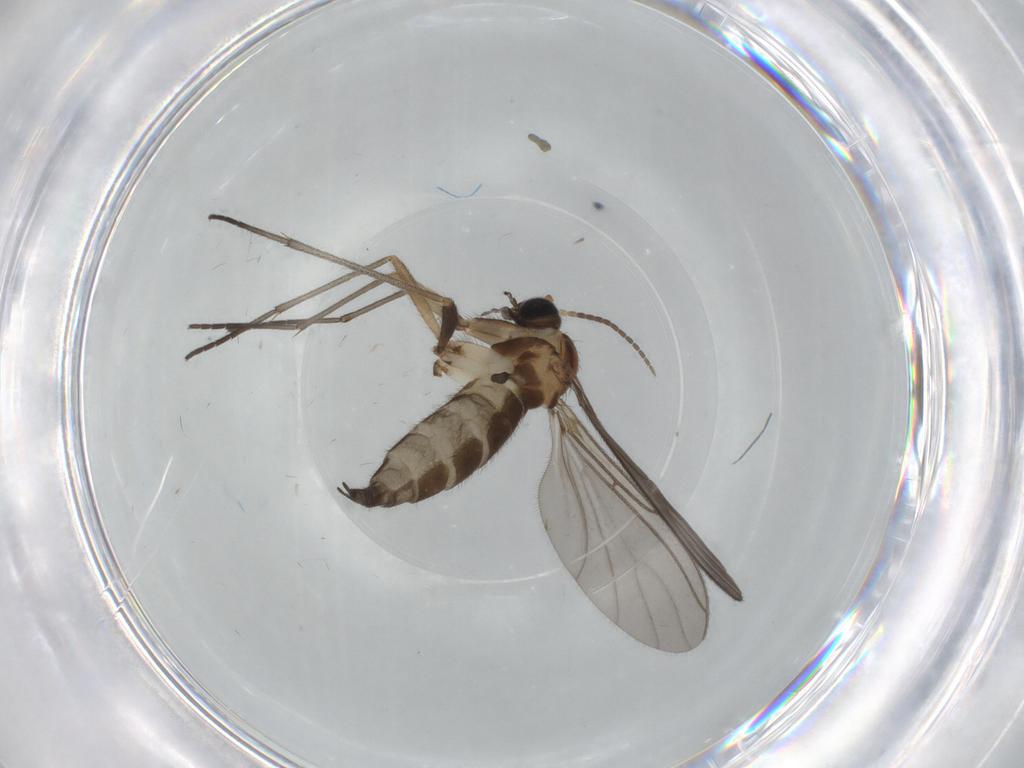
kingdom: Animalia
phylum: Arthropoda
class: Insecta
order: Diptera
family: Sciaridae
